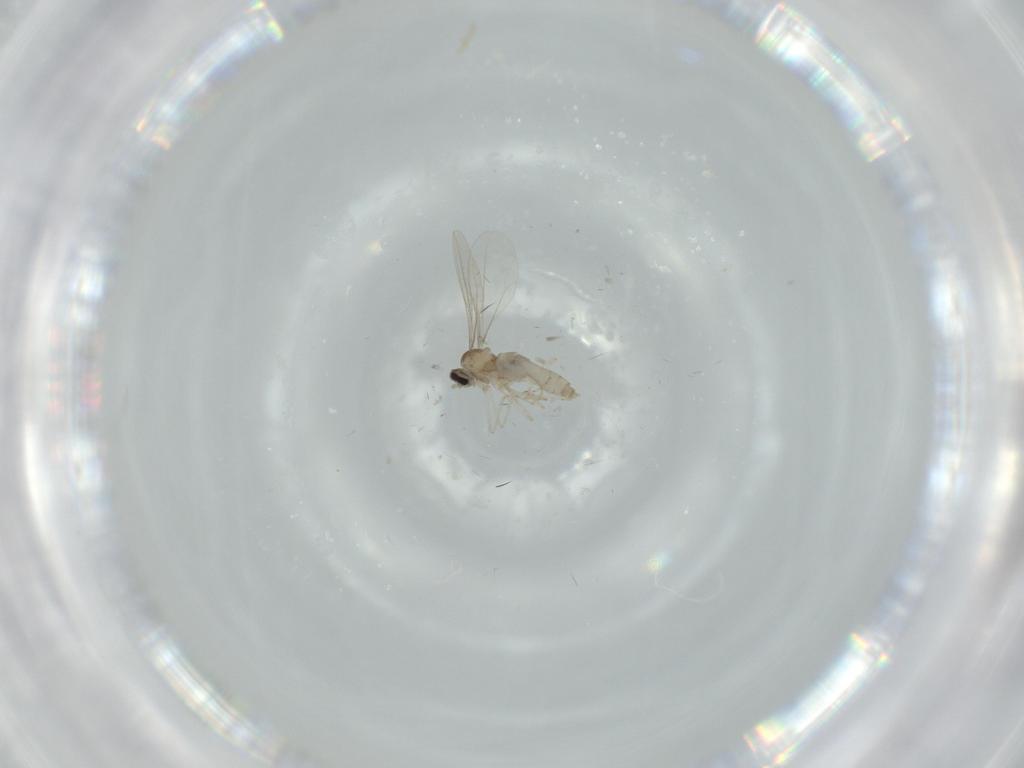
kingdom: Animalia
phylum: Arthropoda
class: Insecta
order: Diptera
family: Cecidomyiidae
